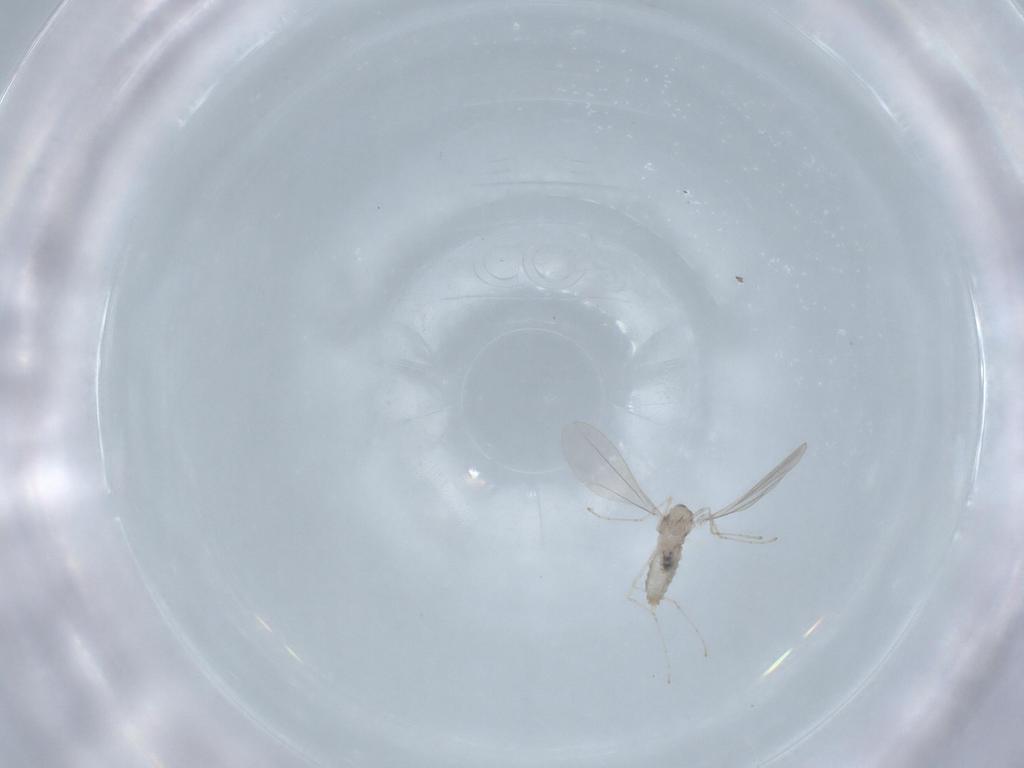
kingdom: Animalia
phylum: Arthropoda
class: Insecta
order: Diptera
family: Cecidomyiidae
